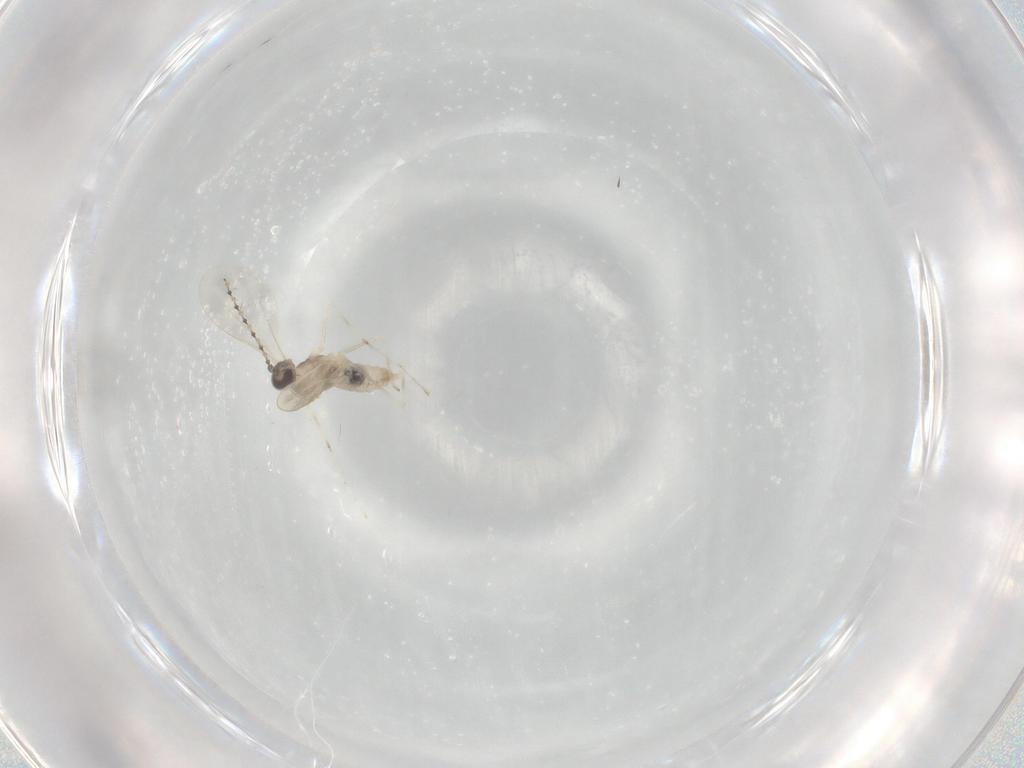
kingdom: Animalia
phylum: Arthropoda
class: Insecta
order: Diptera
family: Cecidomyiidae
